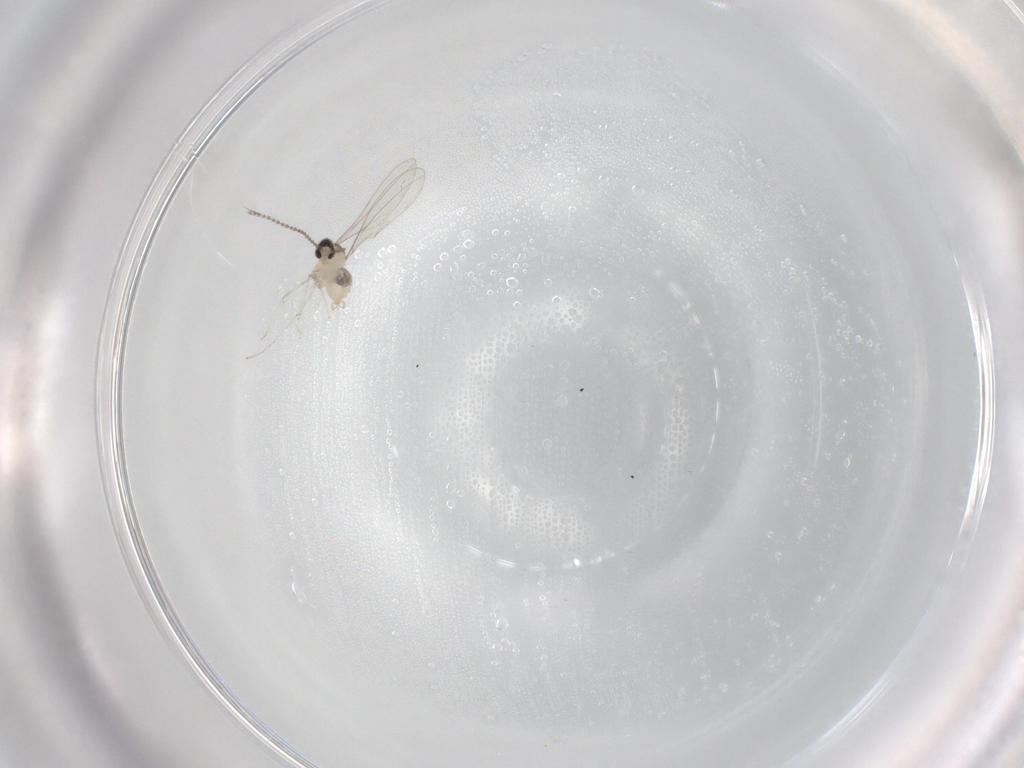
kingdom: Animalia
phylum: Arthropoda
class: Insecta
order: Diptera
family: Cecidomyiidae
